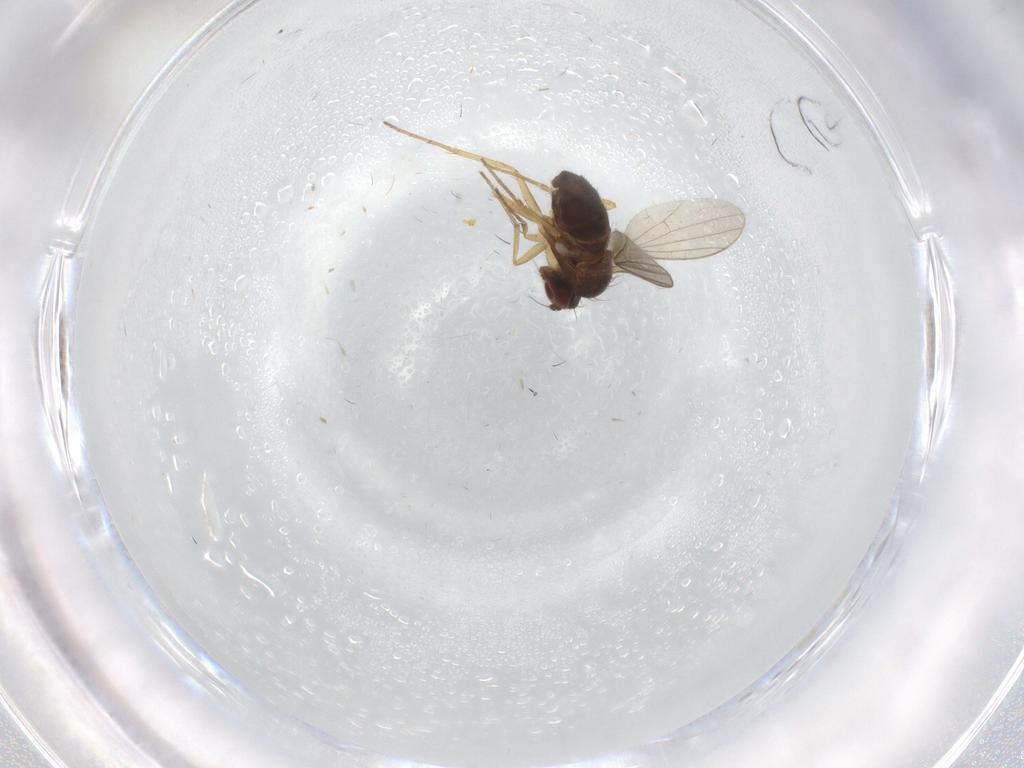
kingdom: Animalia
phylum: Arthropoda
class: Insecta
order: Diptera
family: Dolichopodidae
